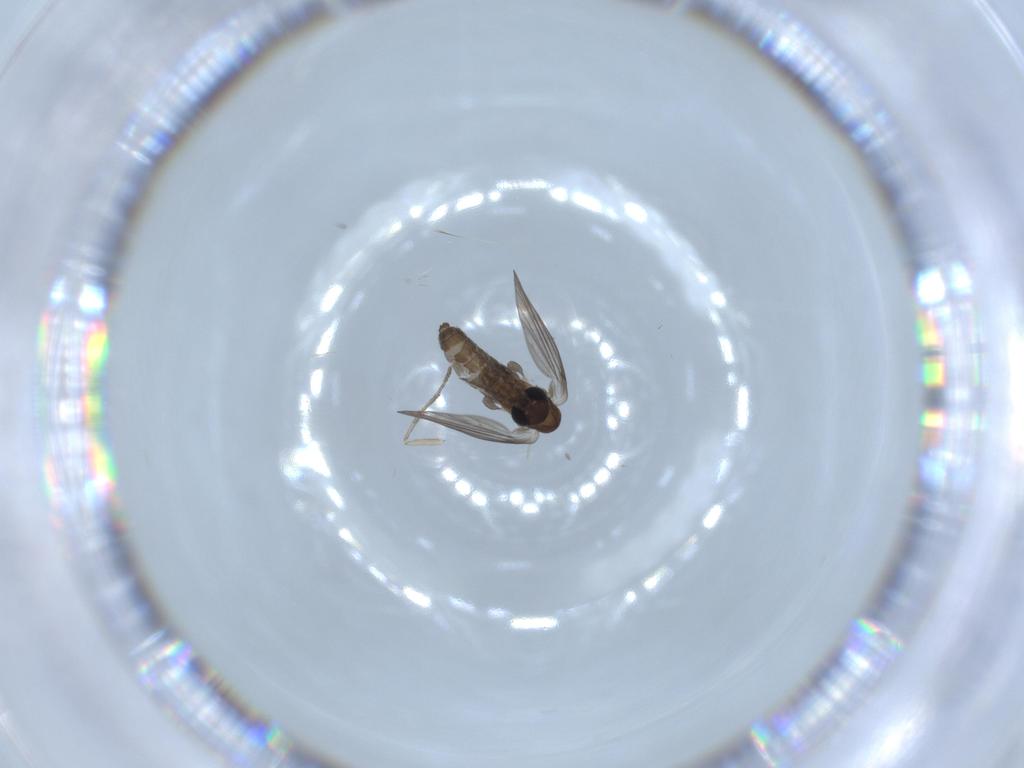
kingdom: Animalia
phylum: Arthropoda
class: Insecta
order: Diptera
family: Psychodidae
